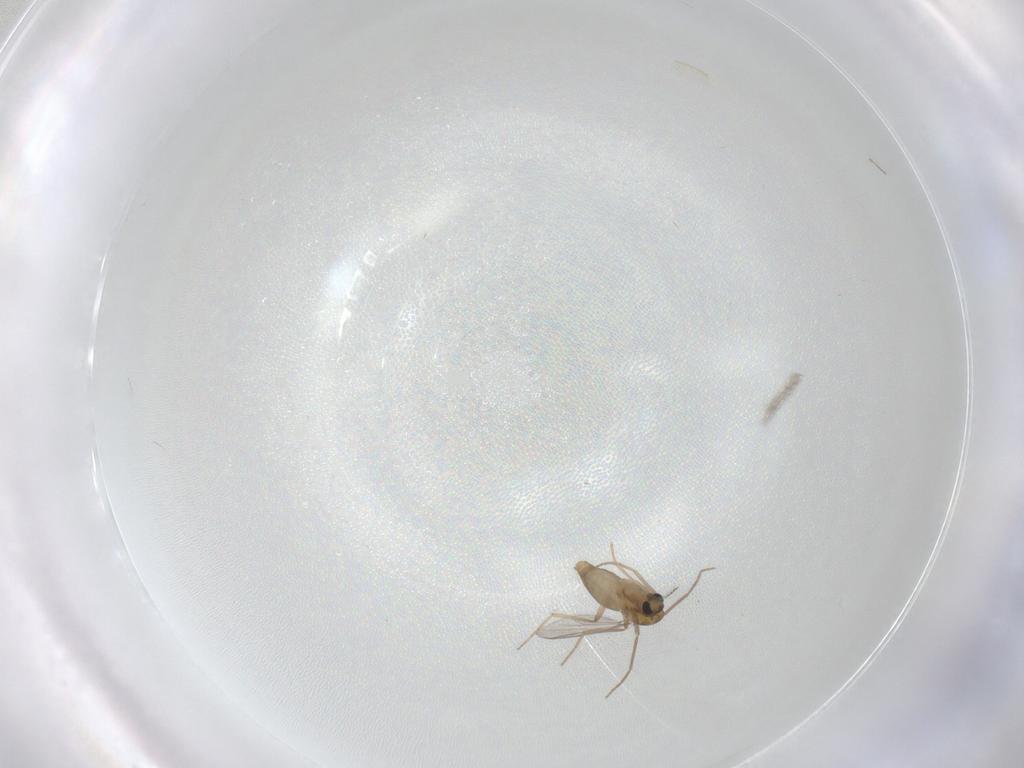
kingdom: Animalia
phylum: Arthropoda
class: Insecta
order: Diptera
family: Chironomidae
